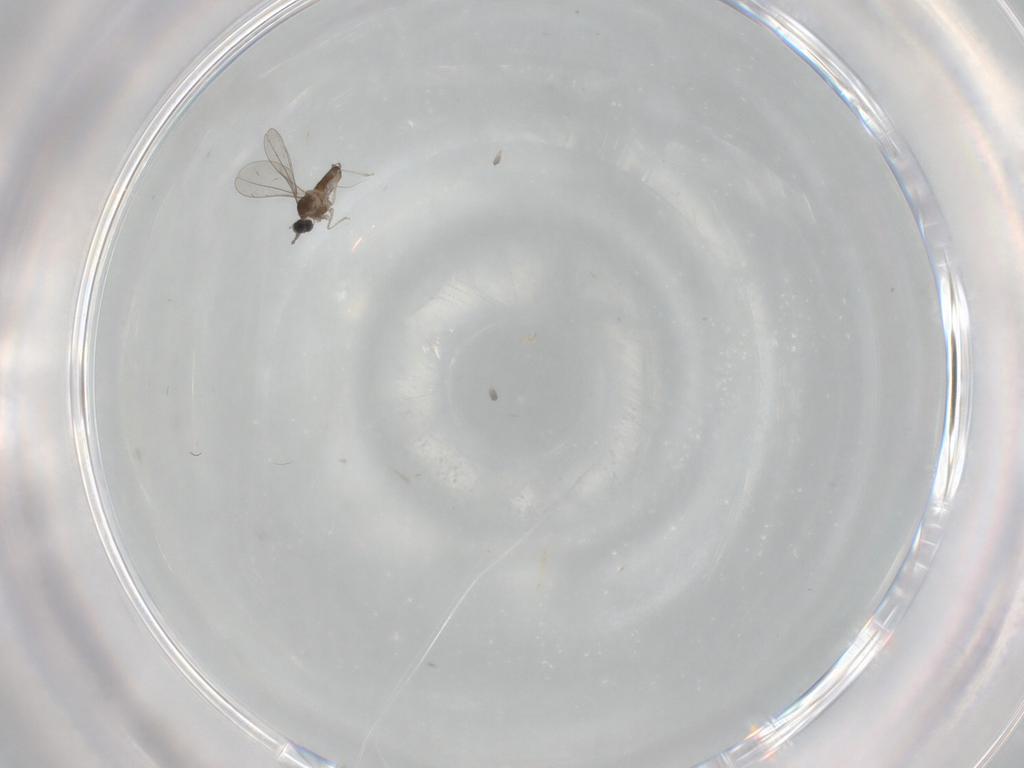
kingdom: Animalia
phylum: Arthropoda
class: Insecta
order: Diptera
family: Cecidomyiidae
